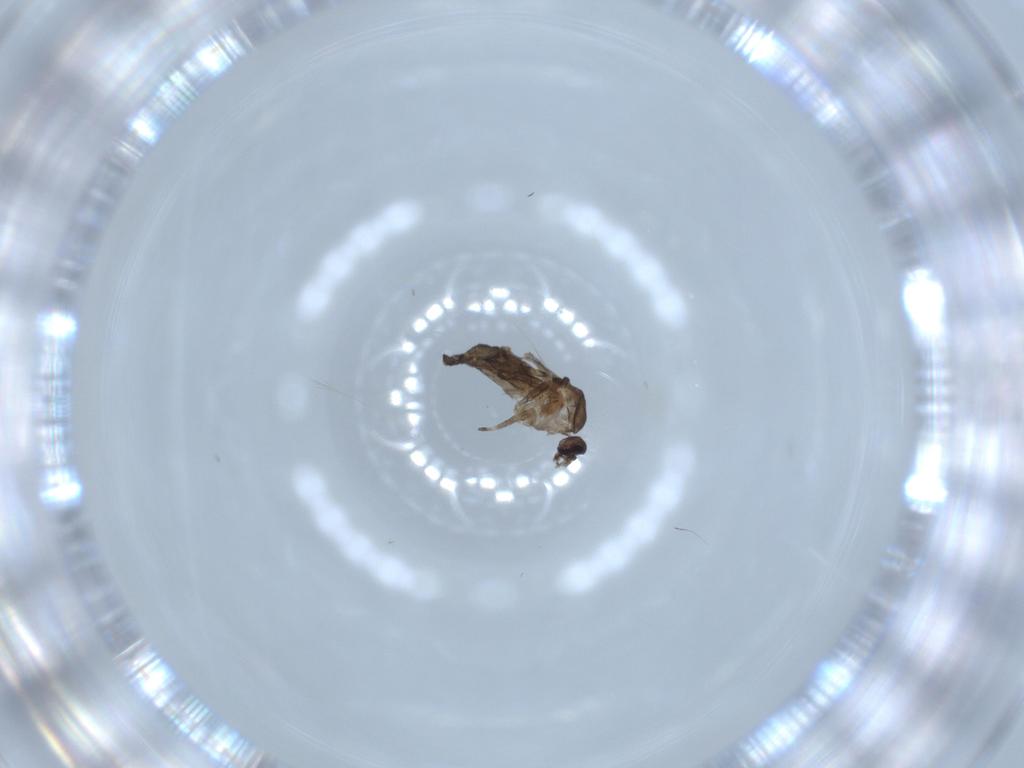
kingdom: Animalia
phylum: Arthropoda
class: Insecta
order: Diptera
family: Ceratopogonidae
